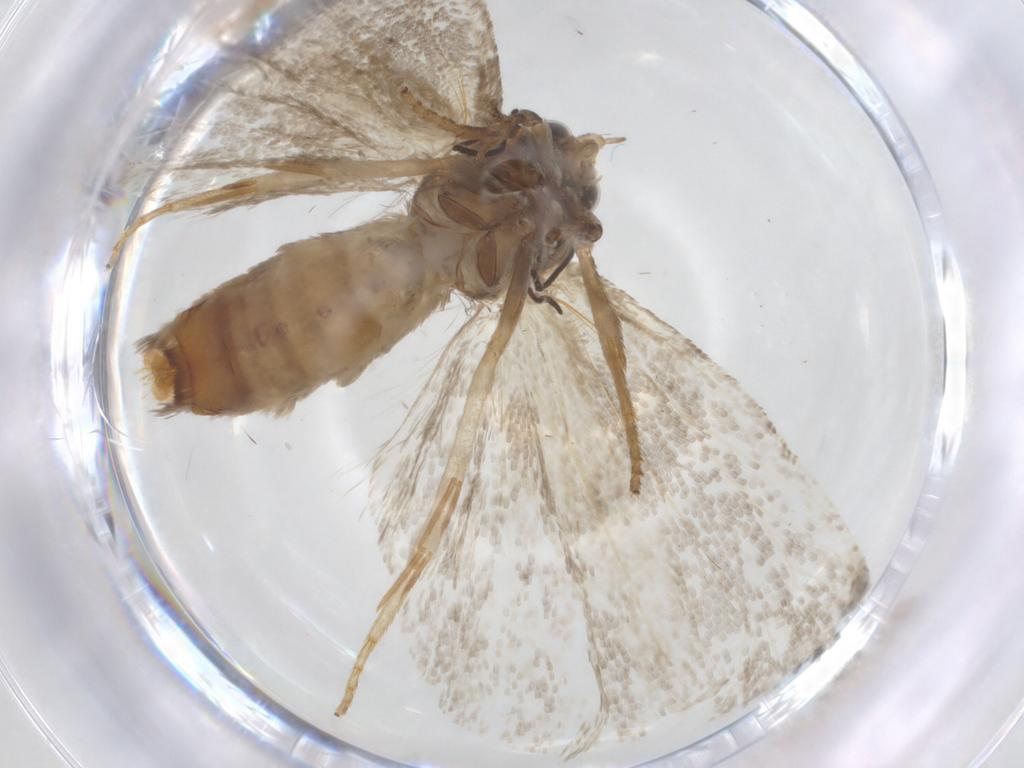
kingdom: Animalia
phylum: Arthropoda
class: Insecta
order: Lepidoptera
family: Tortricidae
